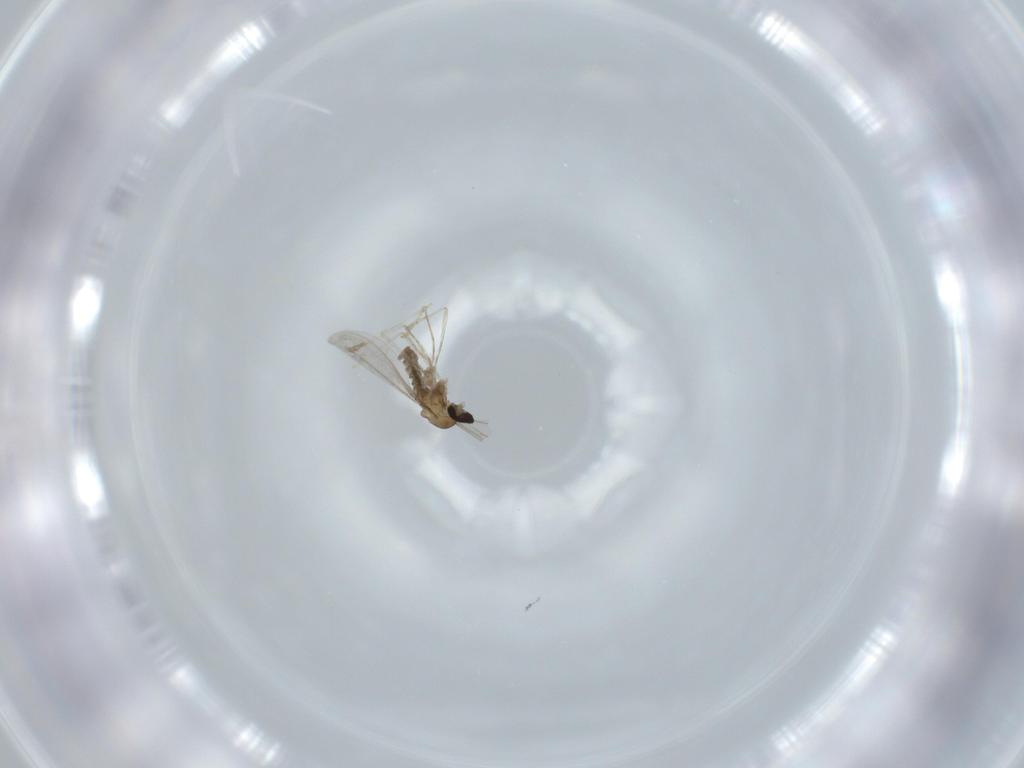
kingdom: Animalia
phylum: Arthropoda
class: Insecta
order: Diptera
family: Cecidomyiidae
